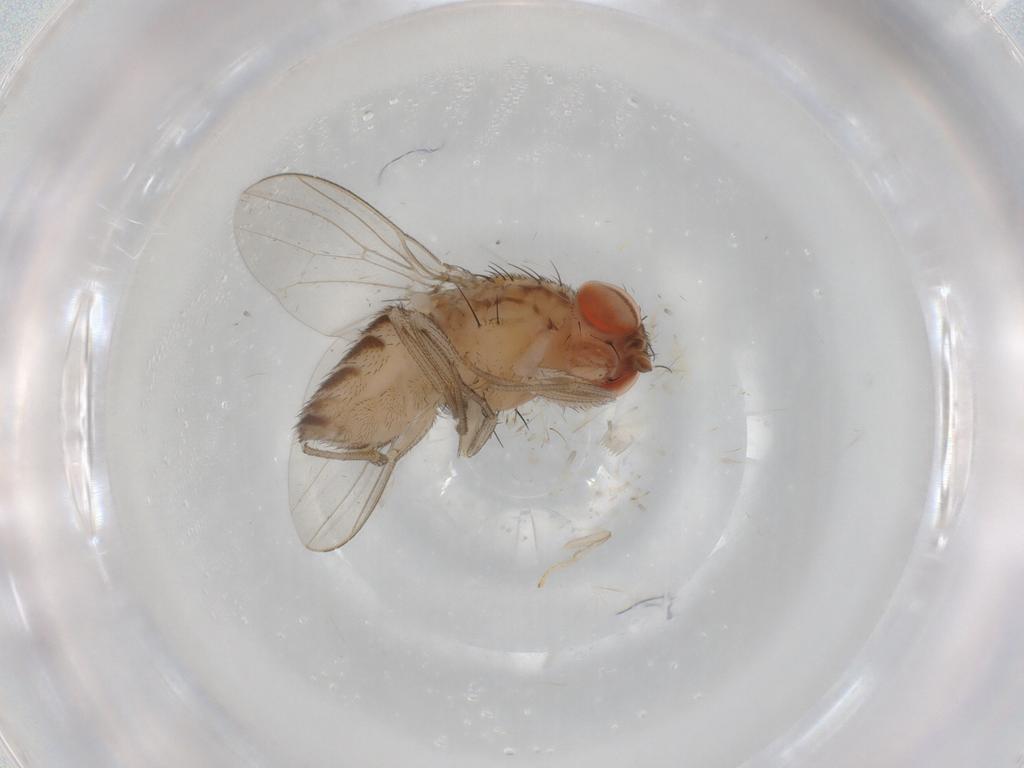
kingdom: Animalia
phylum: Arthropoda
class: Insecta
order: Diptera
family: Drosophilidae
